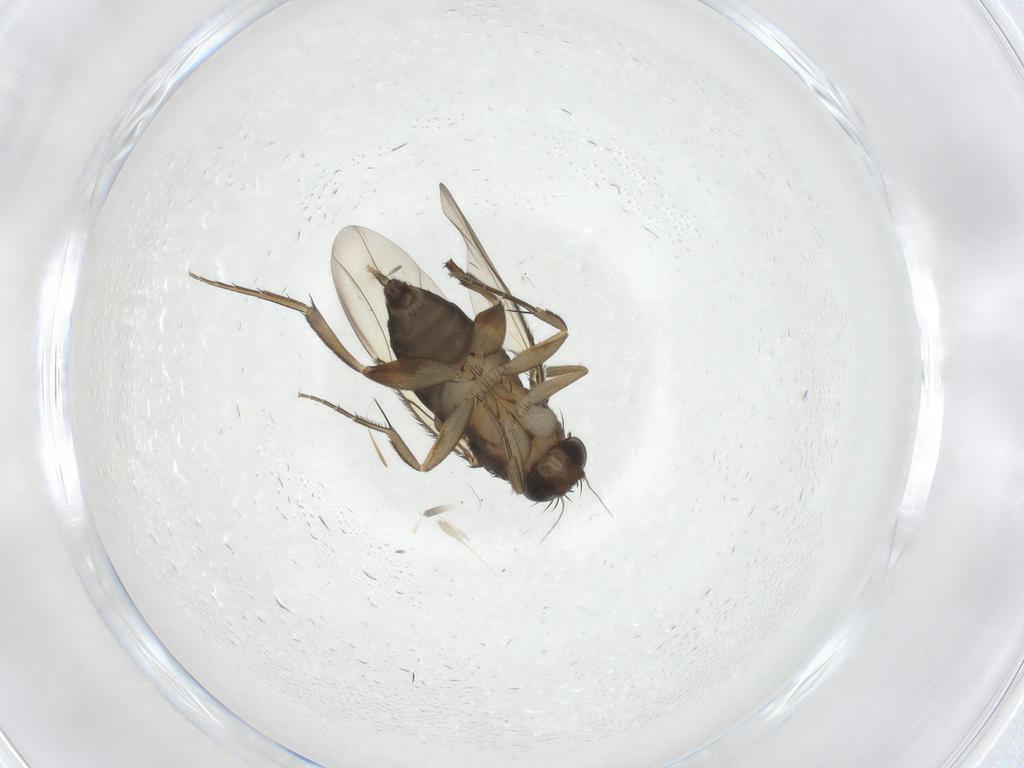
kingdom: Animalia
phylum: Arthropoda
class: Insecta
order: Diptera
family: Phoridae
